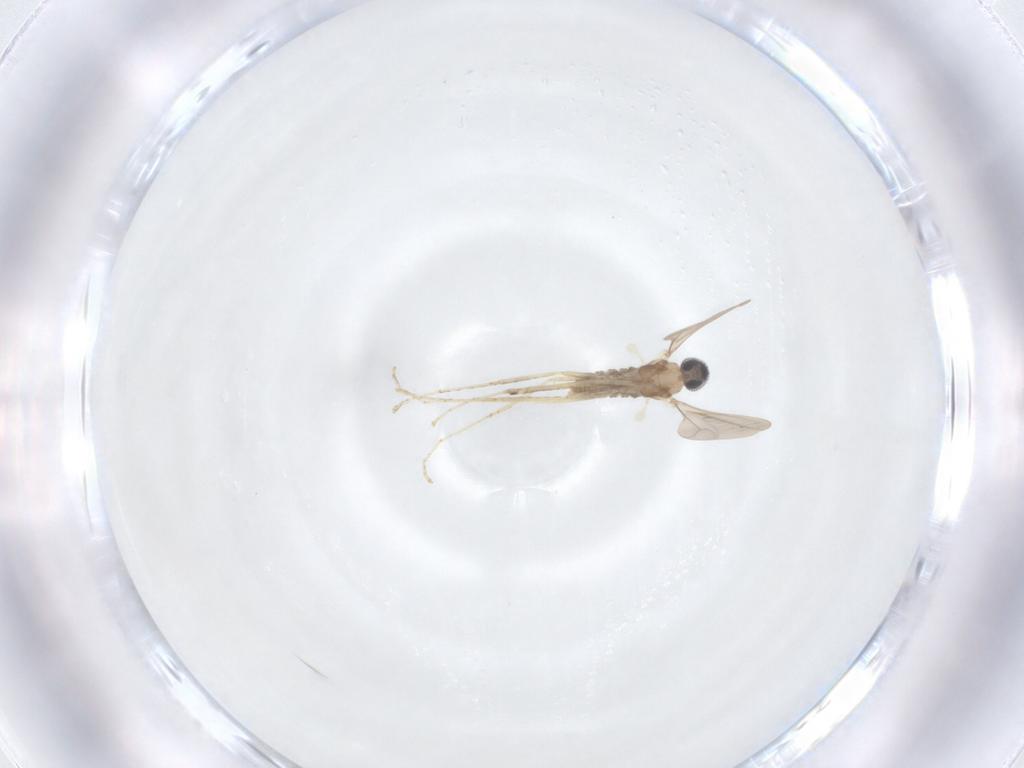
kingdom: Animalia
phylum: Arthropoda
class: Insecta
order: Diptera
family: Cecidomyiidae
